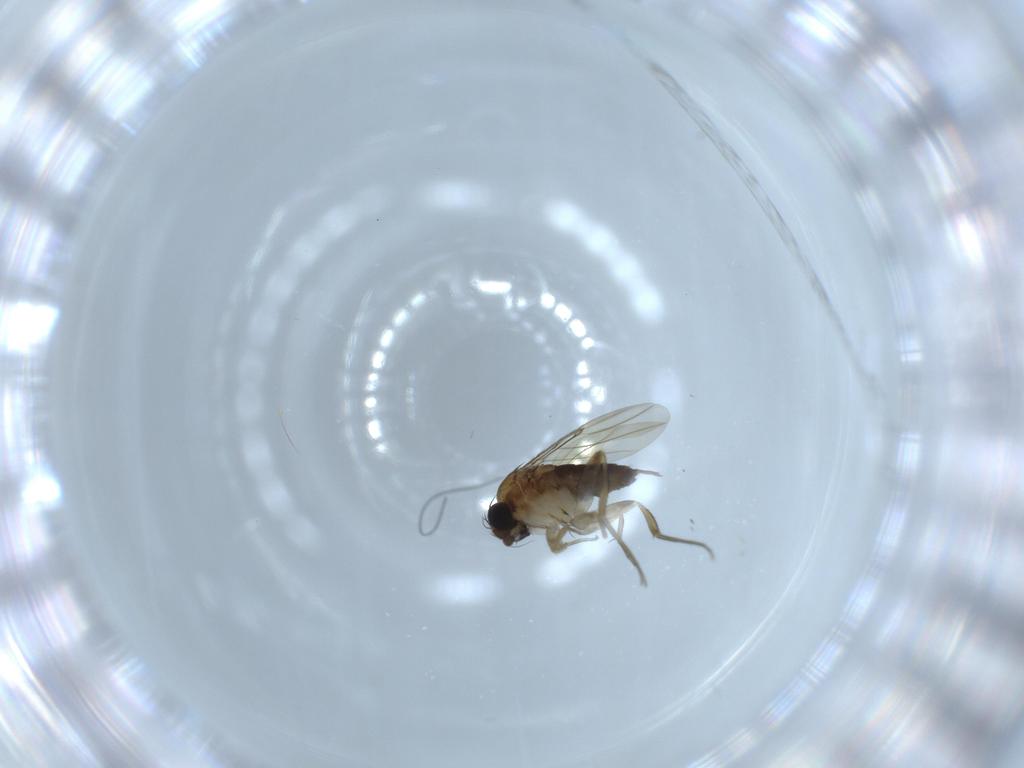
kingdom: Animalia
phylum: Arthropoda
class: Insecta
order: Diptera
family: Phoridae
